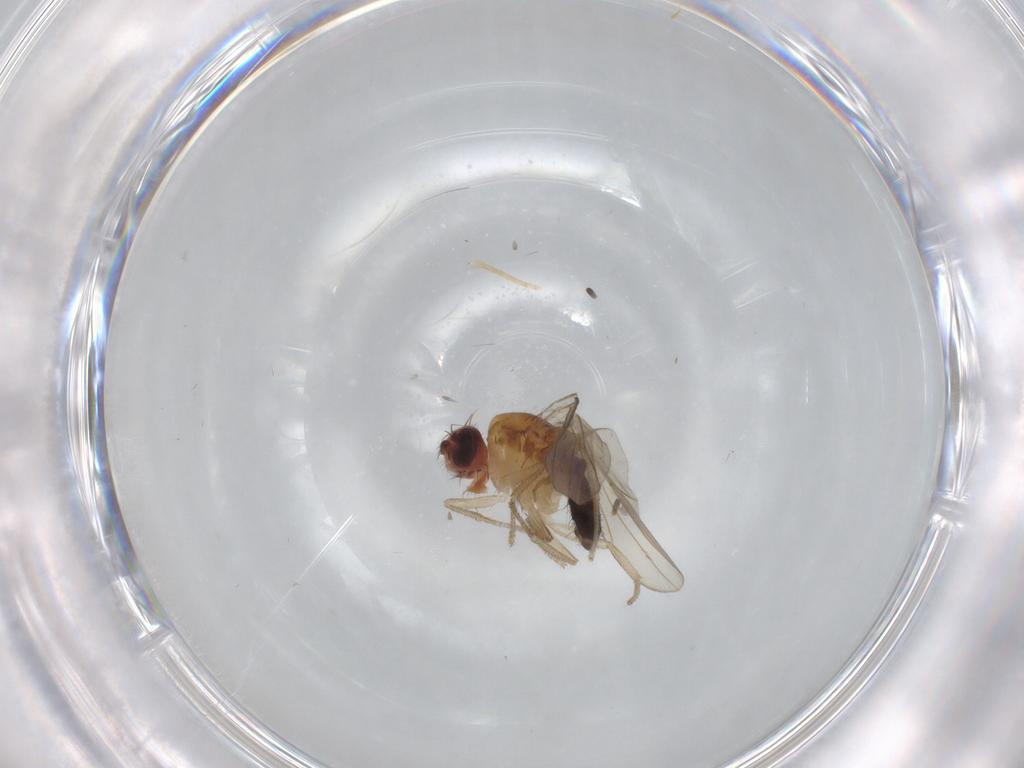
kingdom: Animalia
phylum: Arthropoda
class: Insecta
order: Diptera
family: Drosophilidae
